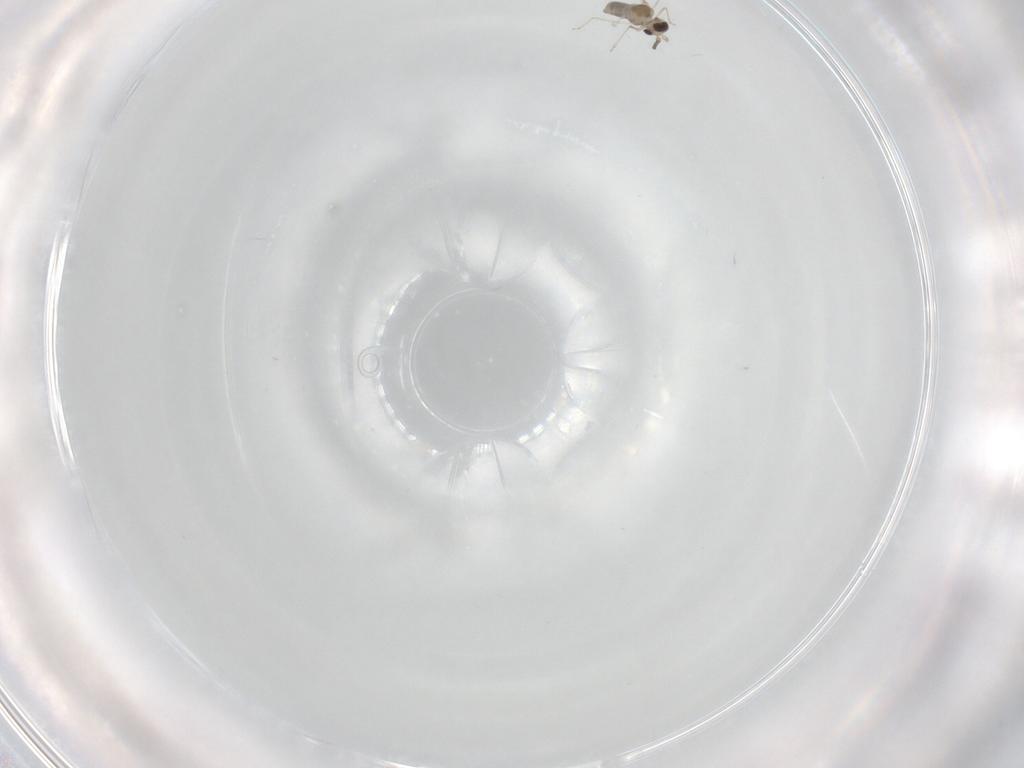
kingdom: Animalia
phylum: Arthropoda
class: Insecta
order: Diptera
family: Cecidomyiidae
